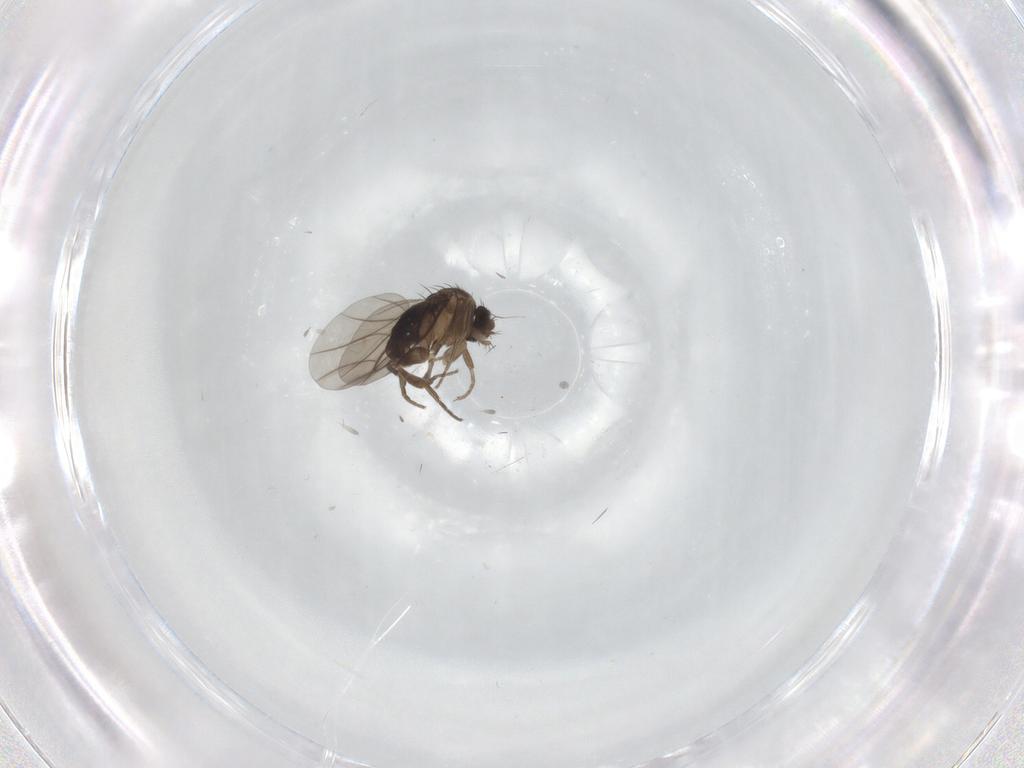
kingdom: Animalia
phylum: Arthropoda
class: Insecta
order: Diptera
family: Phoridae
